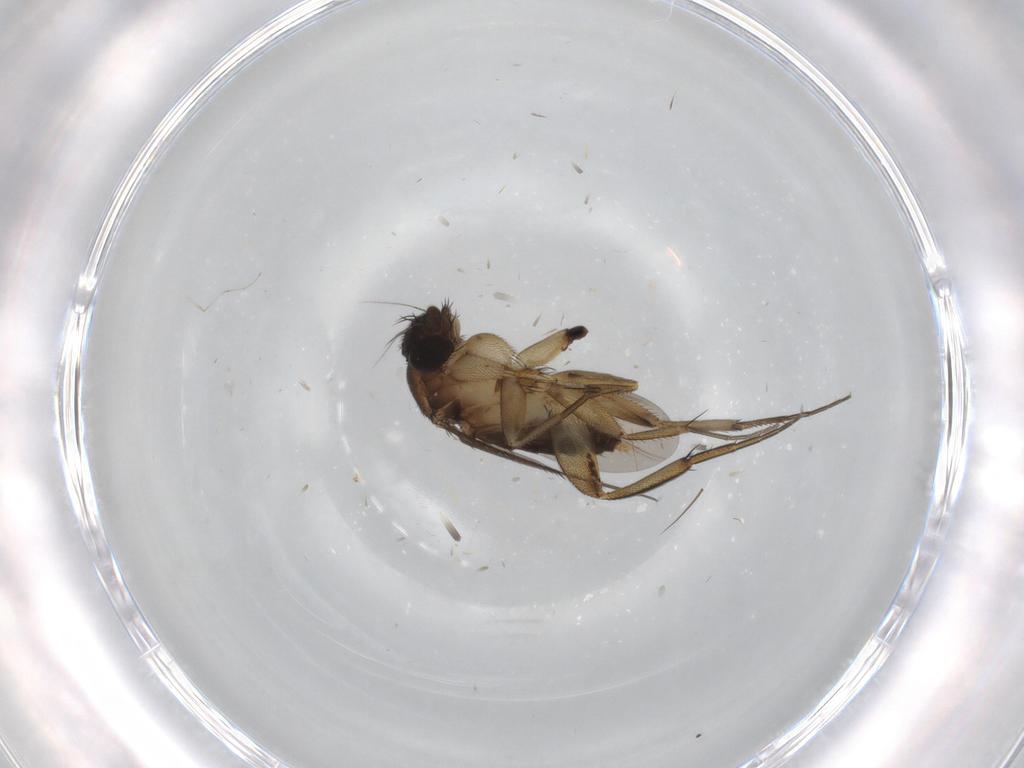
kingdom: Animalia
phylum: Arthropoda
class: Insecta
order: Diptera
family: Phoridae
